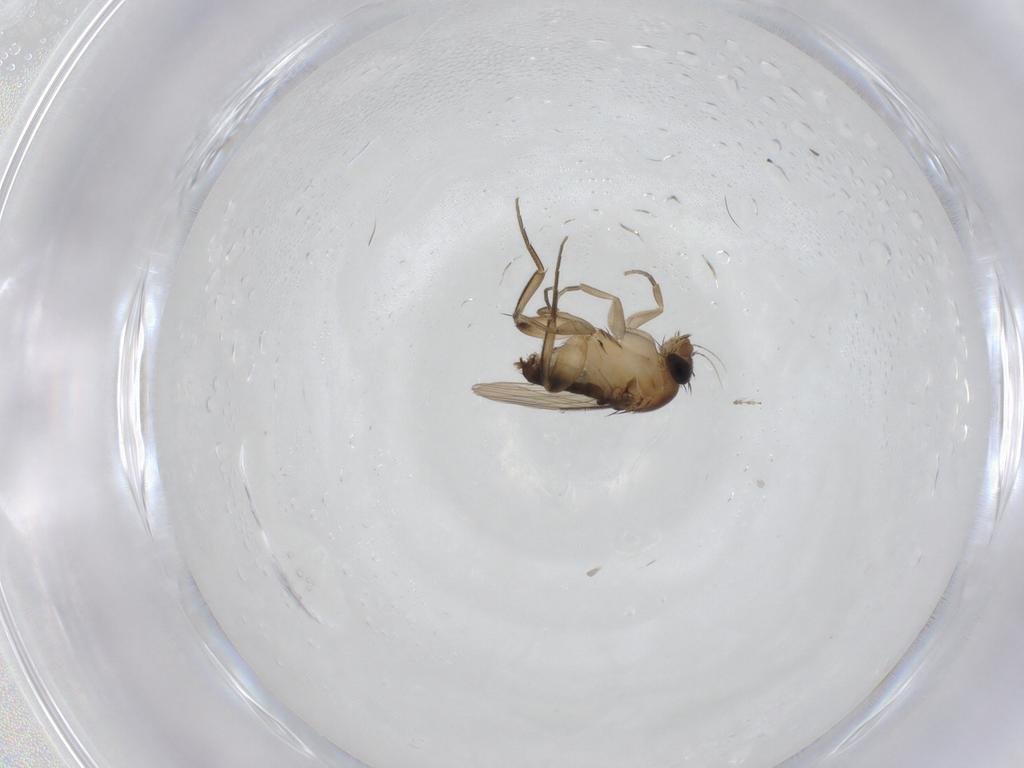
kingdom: Animalia
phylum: Arthropoda
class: Insecta
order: Diptera
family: Phoridae
